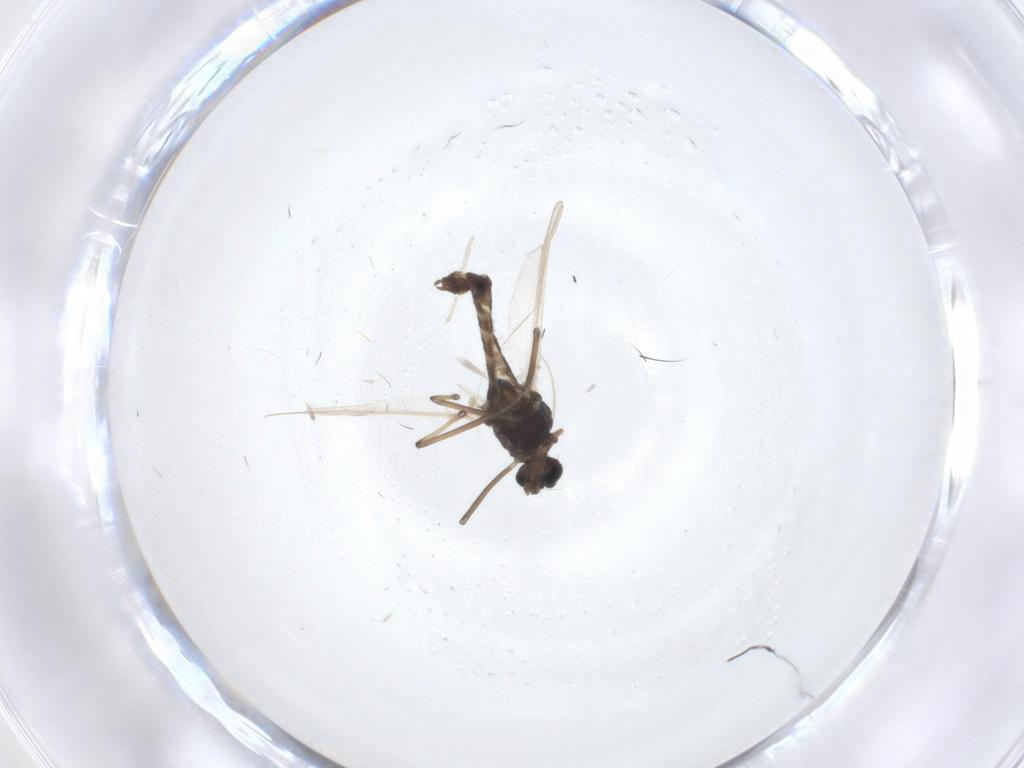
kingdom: Animalia
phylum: Arthropoda
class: Insecta
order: Diptera
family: Chironomidae
